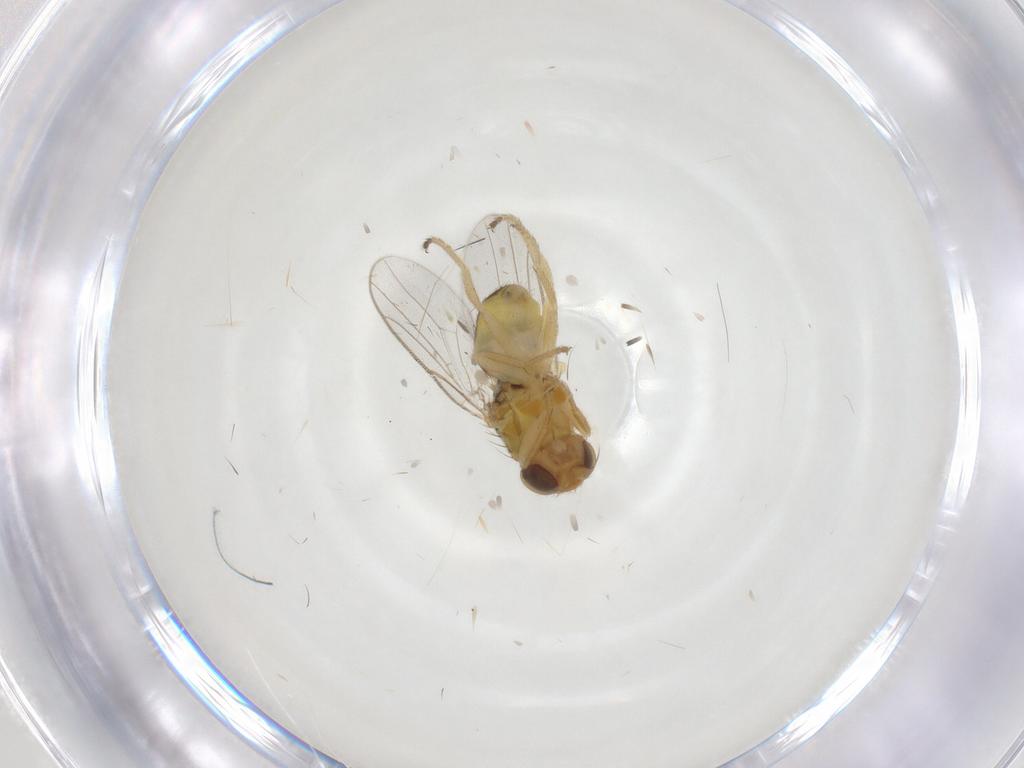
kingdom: Animalia
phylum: Arthropoda
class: Insecta
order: Diptera
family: Chloropidae
